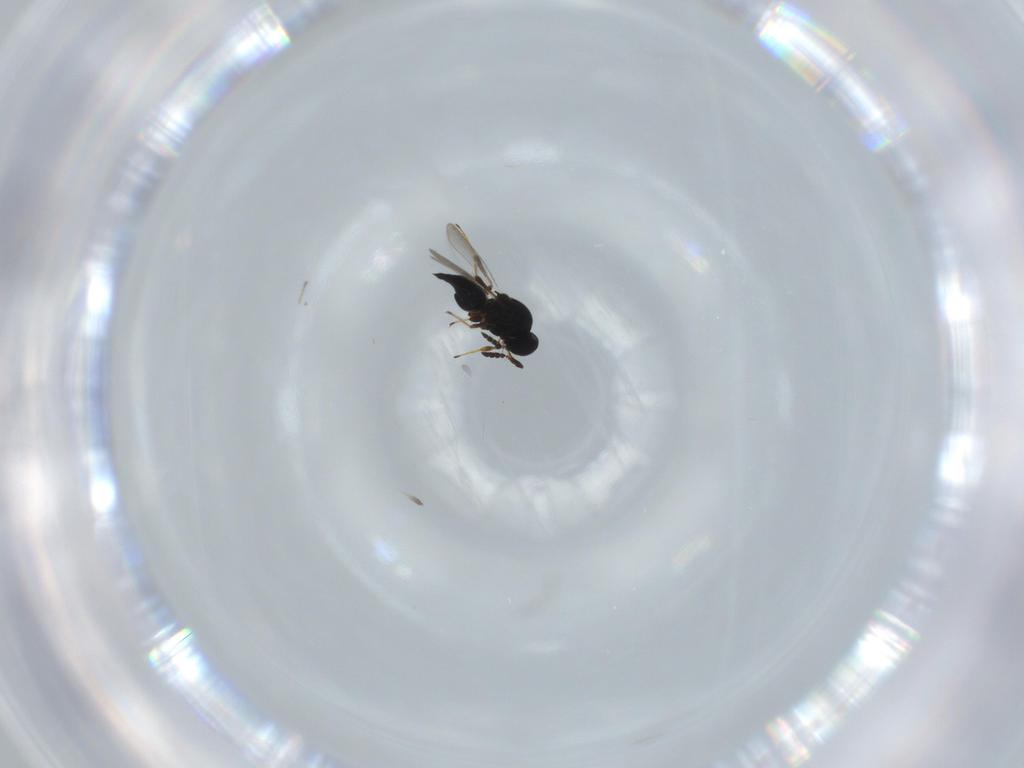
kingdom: Animalia
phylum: Arthropoda
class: Insecta
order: Hymenoptera
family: Platygastridae
